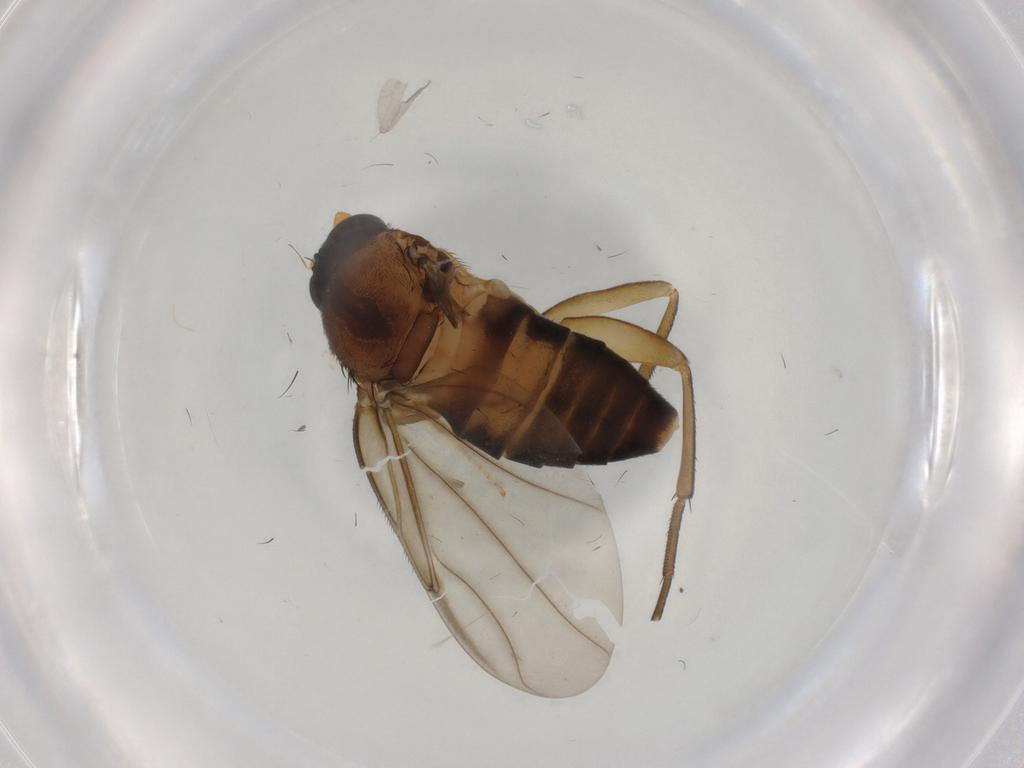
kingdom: Animalia
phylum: Arthropoda
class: Insecta
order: Diptera
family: Muscidae
